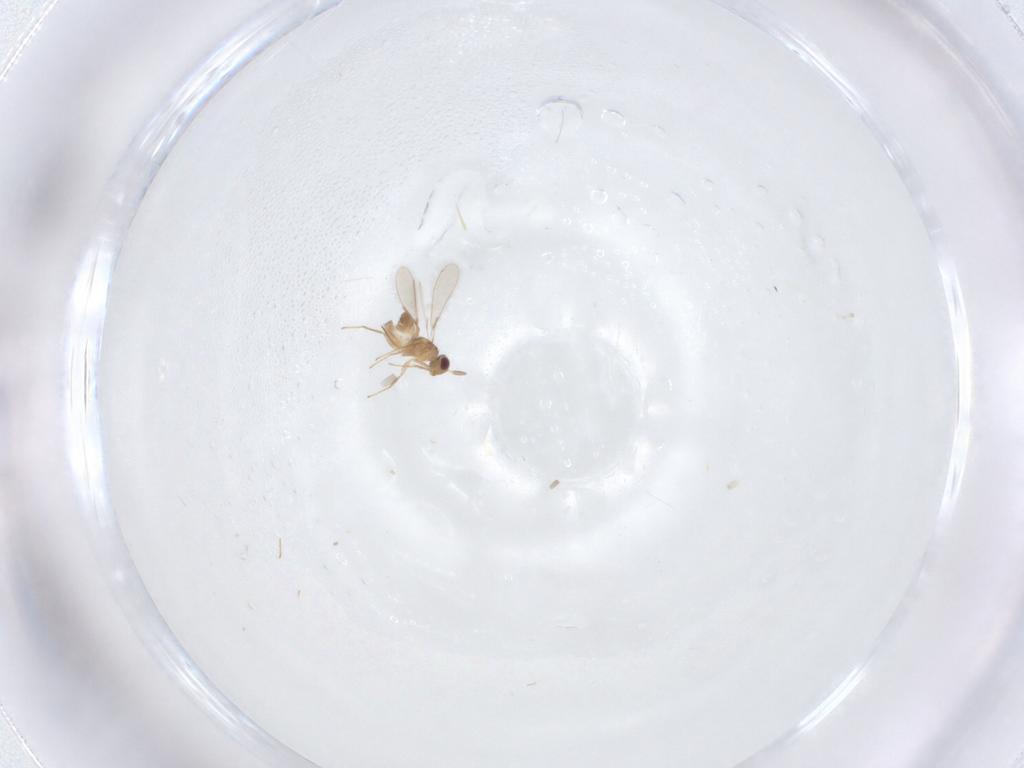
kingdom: Animalia
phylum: Arthropoda
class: Insecta
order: Hymenoptera
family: Mymaridae
